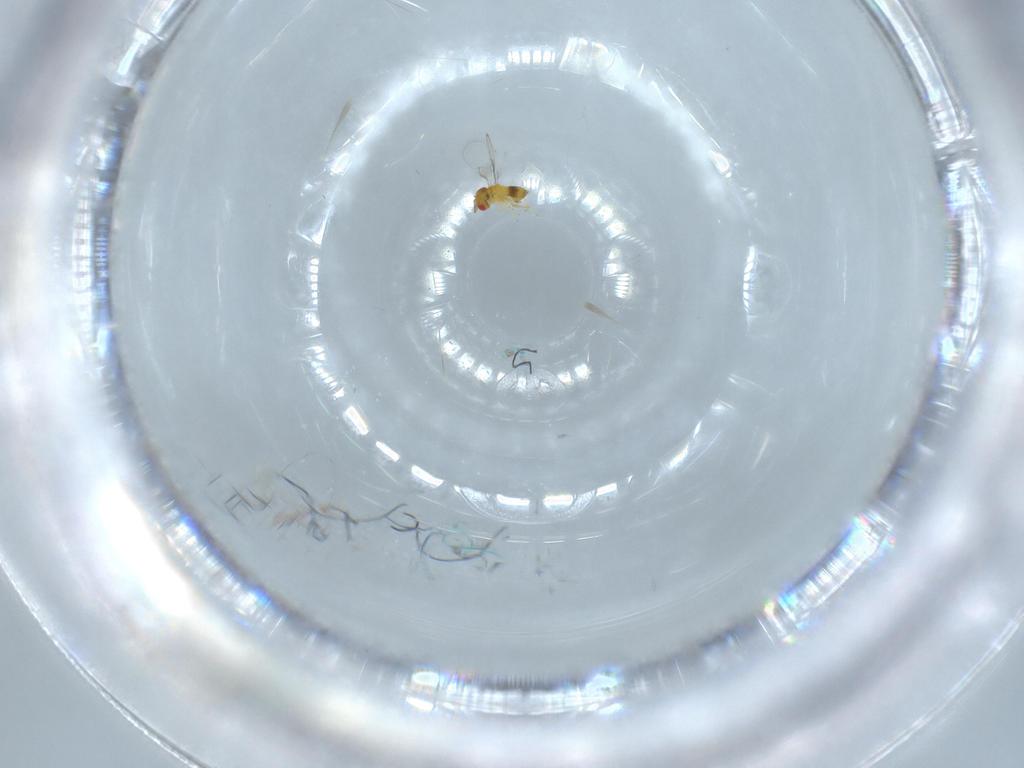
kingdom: Animalia
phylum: Arthropoda
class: Insecta
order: Hymenoptera
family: Trichogrammatidae
